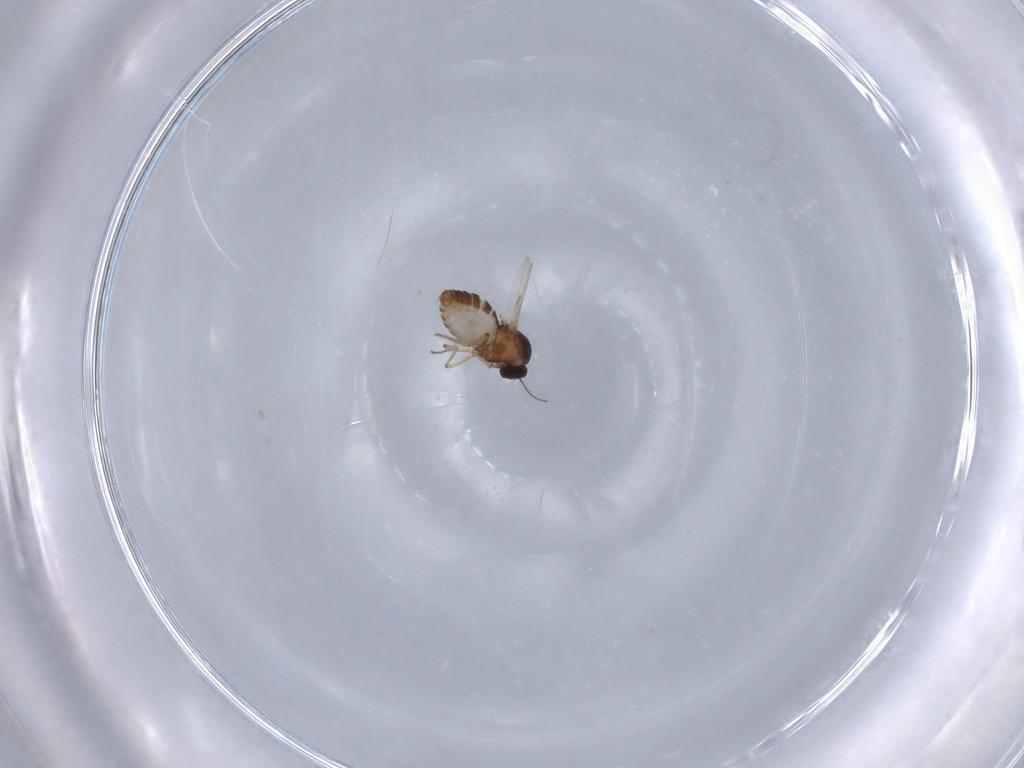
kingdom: Animalia
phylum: Arthropoda
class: Insecta
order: Diptera
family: Ceratopogonidae
